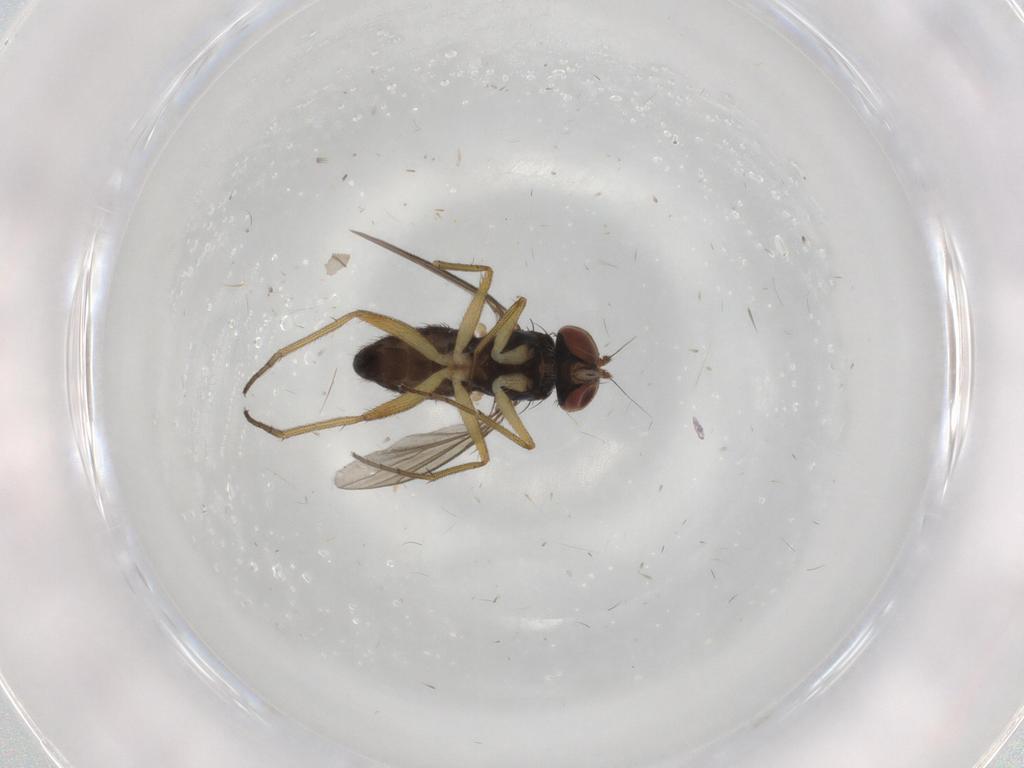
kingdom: Animalia
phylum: Arthropoda
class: Insecta
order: Diptera
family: Dolichopodidae
